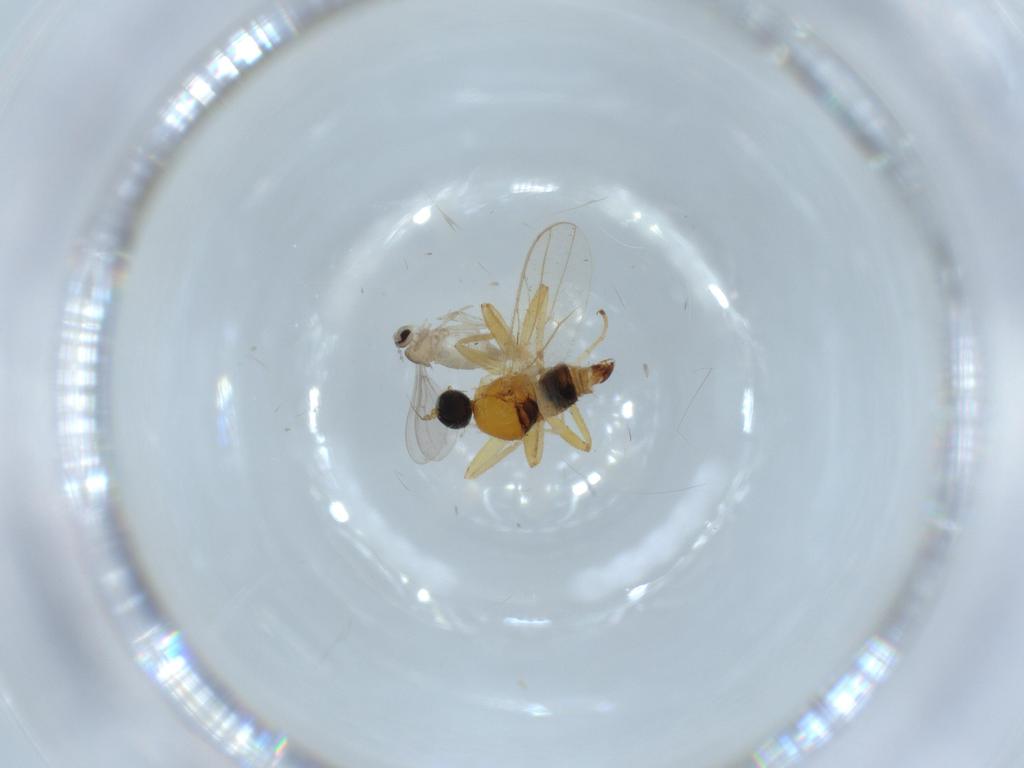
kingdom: Animalia
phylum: Arthropoda
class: Insecta
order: Diptera
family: Hybotidae
